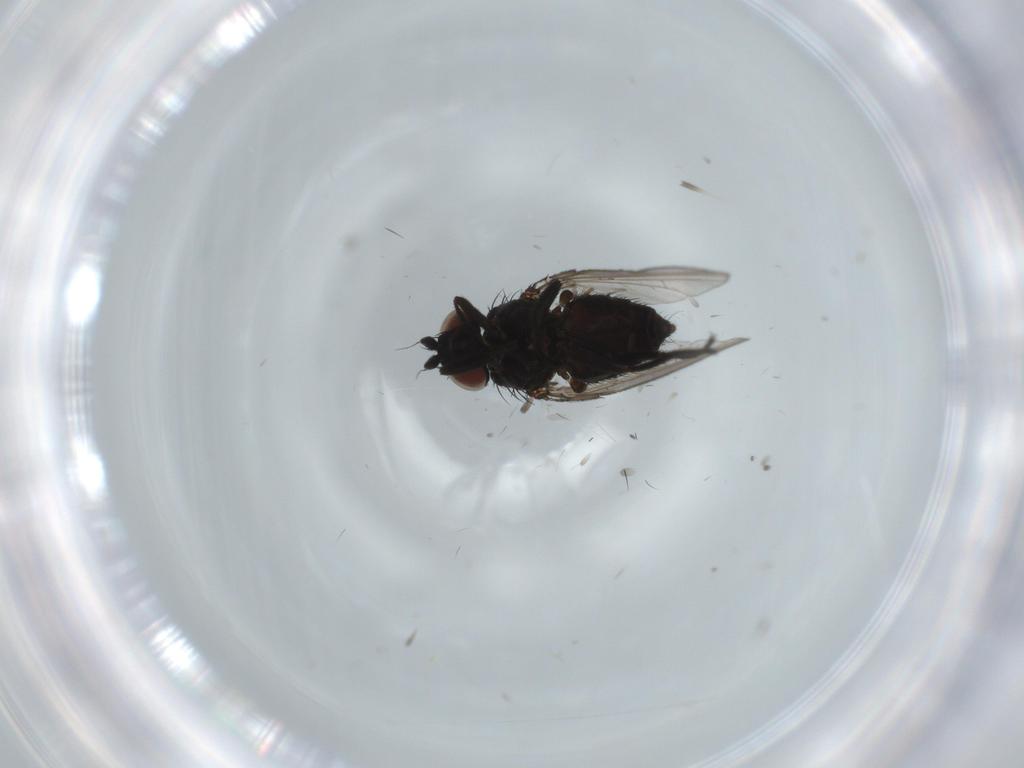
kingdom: Animalia
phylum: Arthropoda
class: Insecta
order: Diptera
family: Milichiidae
